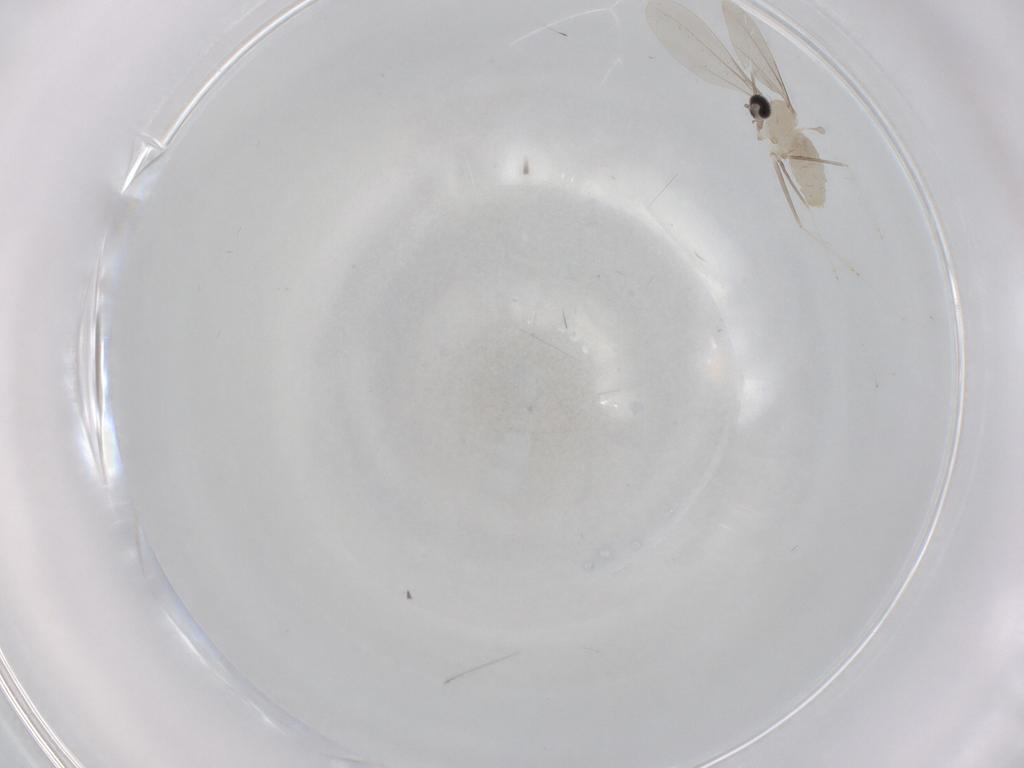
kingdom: Animalia
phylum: Arthropoda
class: Insecta
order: Diptera
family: Cecidomyiidae
